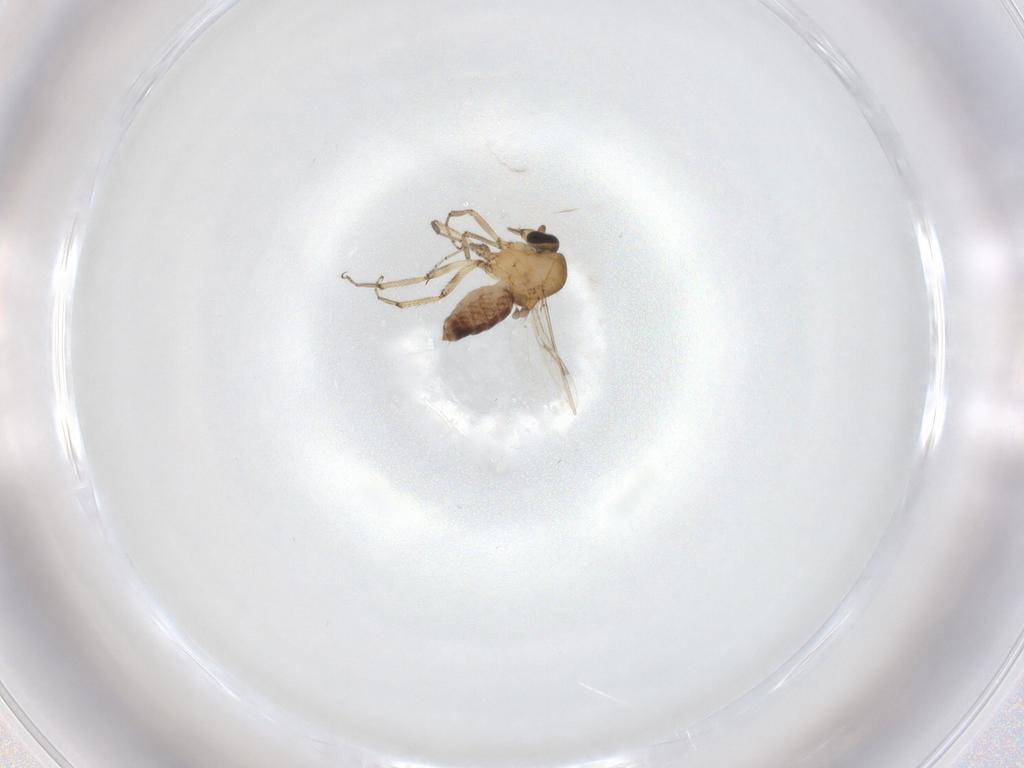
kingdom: Animalia
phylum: Arthropoda
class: Insecta
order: Diptera
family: Ceratopogonidae
